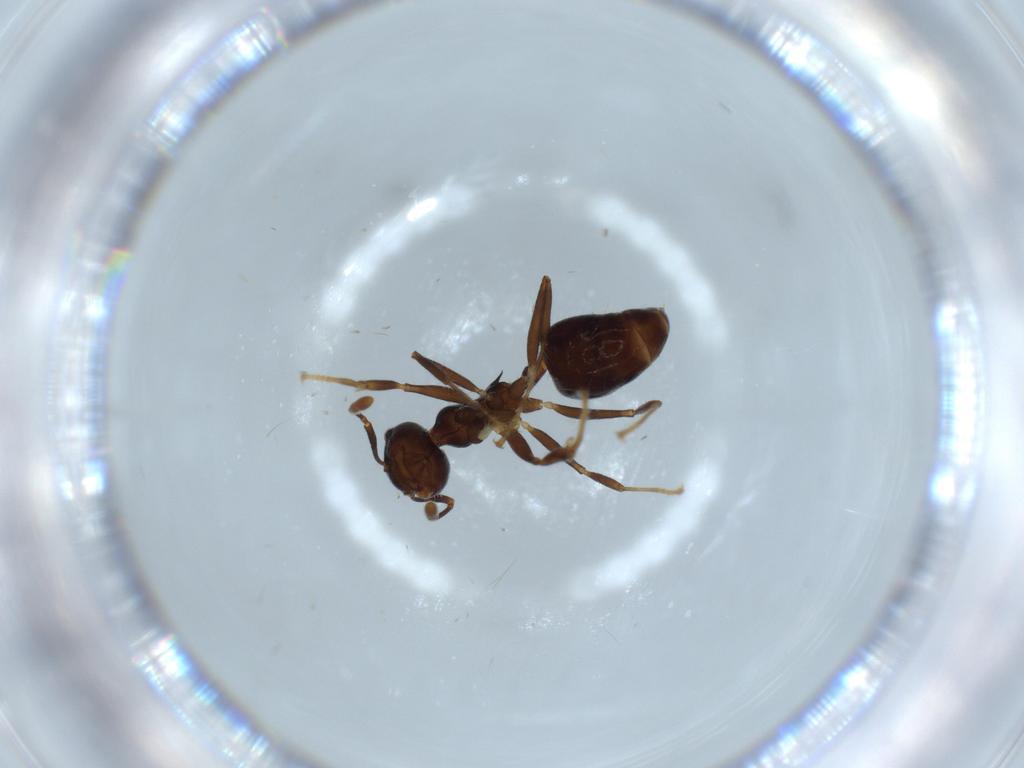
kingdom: Animalia
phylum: Arthropoda
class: Insecta
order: Hymenoptera
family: Formicidae
